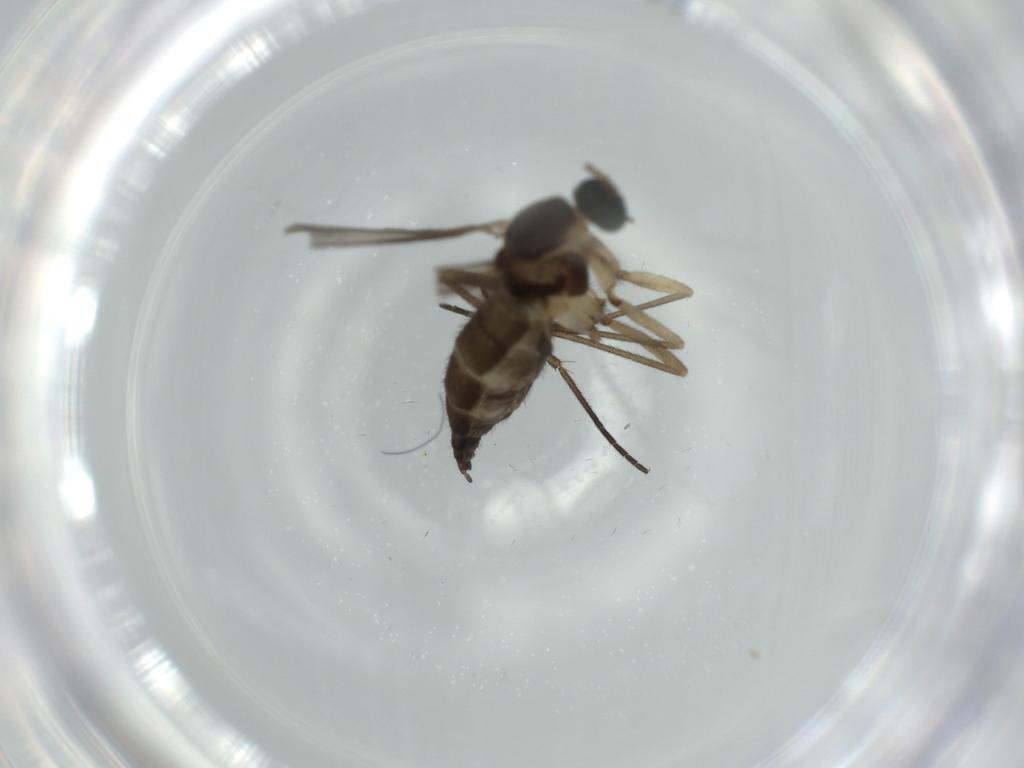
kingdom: Animalia
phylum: Arthropoda
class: Insecta
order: Diptera
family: Sciaridae
